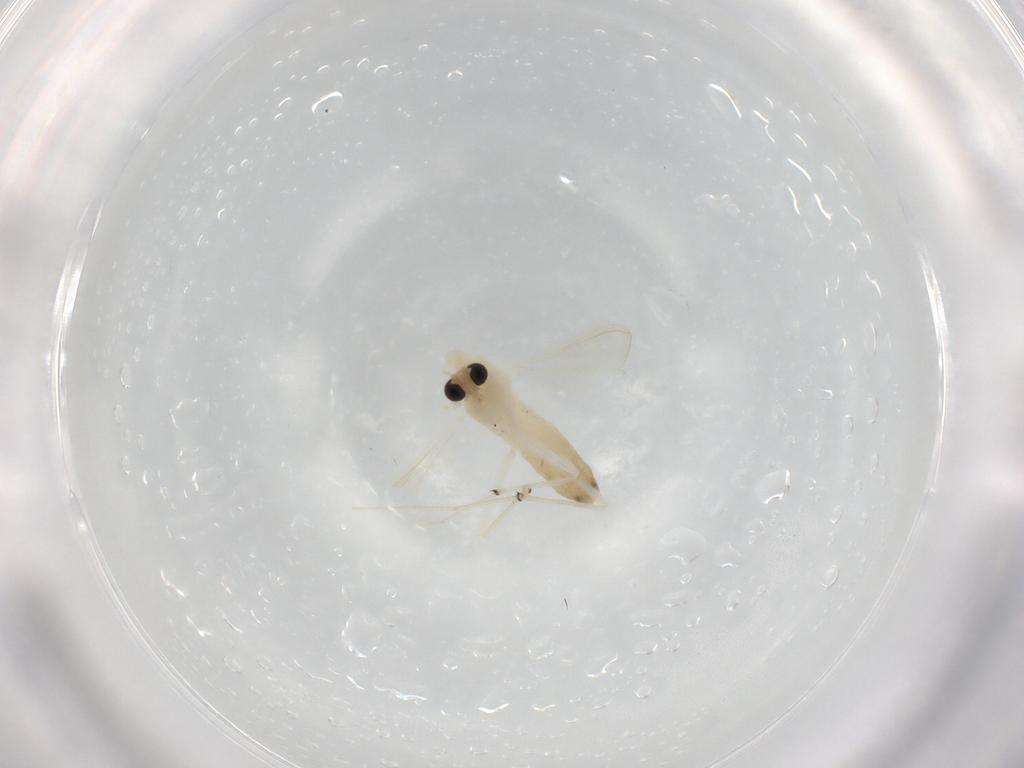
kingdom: Animalia
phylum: Arthropoda
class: Insecta
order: Diptera
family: Chironomidae
